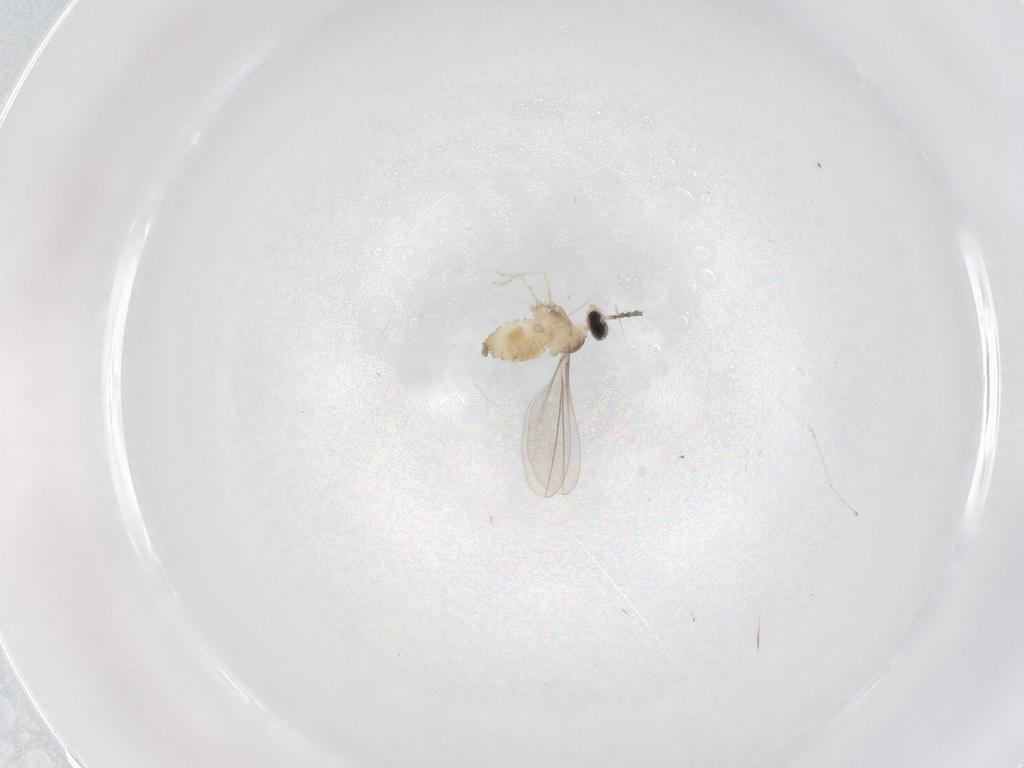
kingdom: Animalia
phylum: Arthropoda
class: Insecta
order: Diptera
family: Cecidomyiidae
